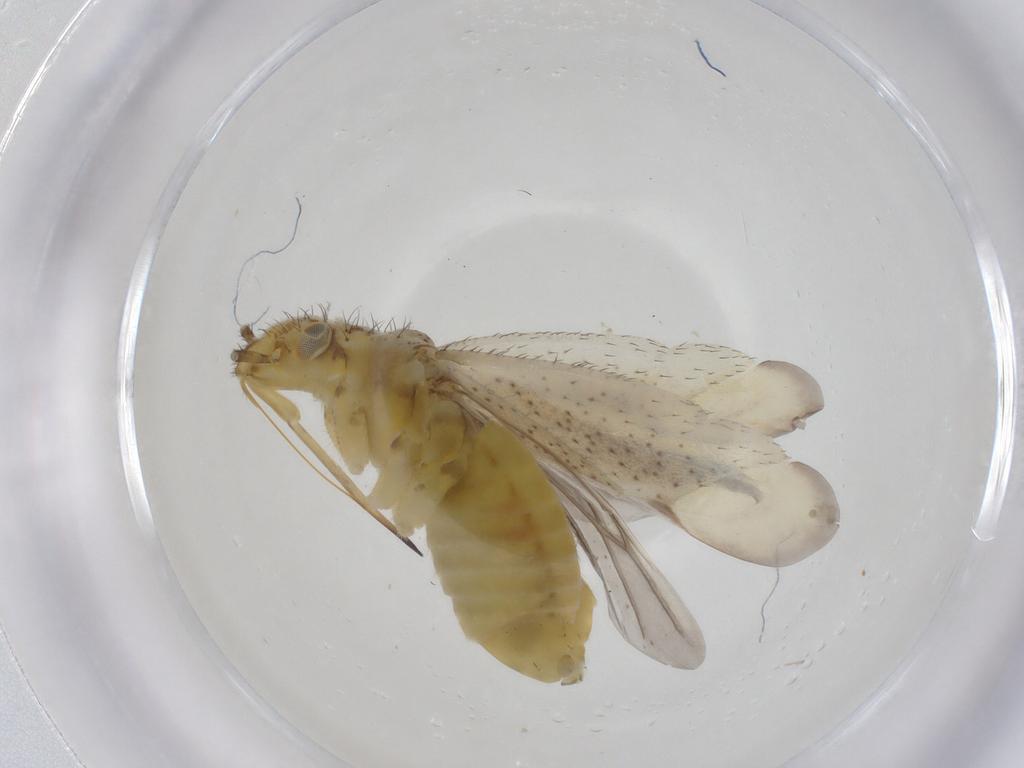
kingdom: Animalia
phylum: Arthropoda
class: Insecta
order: Hemiptera
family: Miridae
